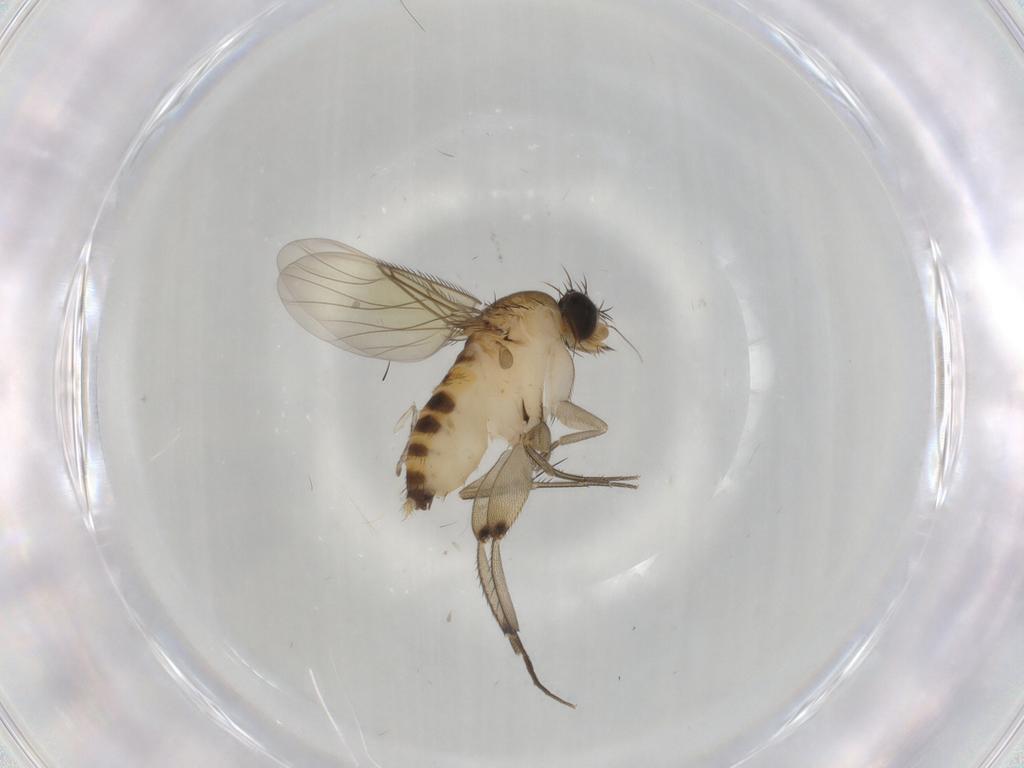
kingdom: Animalia
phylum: Arthropoda
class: Insecta
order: Diptera
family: Phoridae
